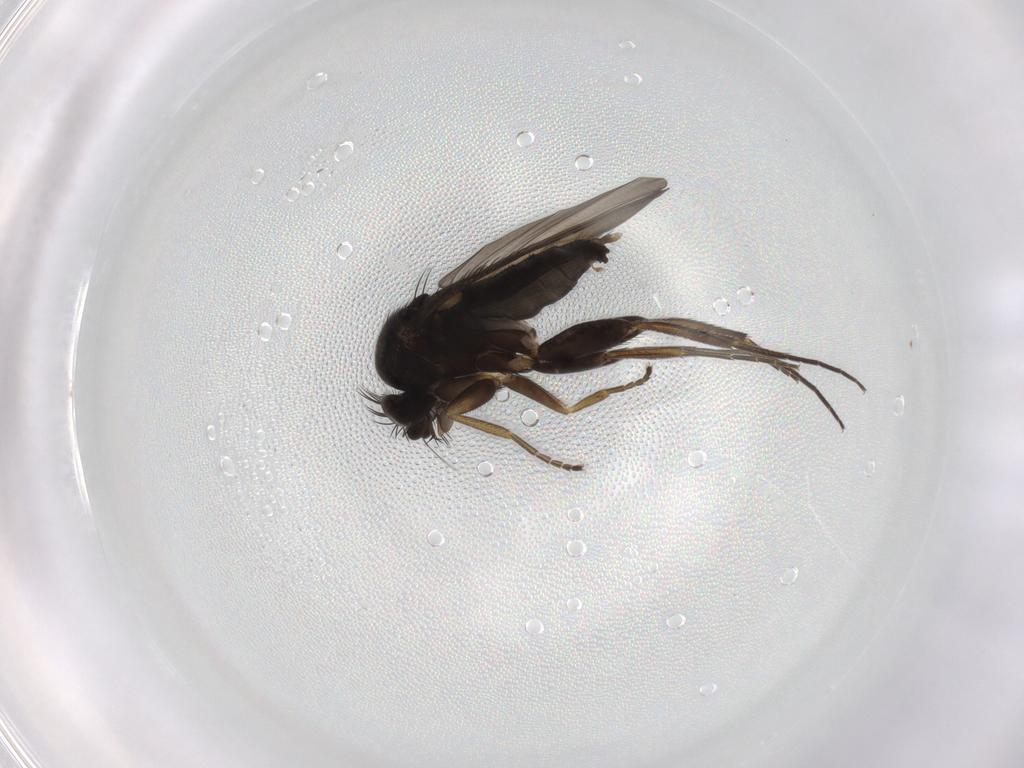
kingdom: Animalia
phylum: Arthropoda
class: Insecta
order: Diptera
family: Phoridae
